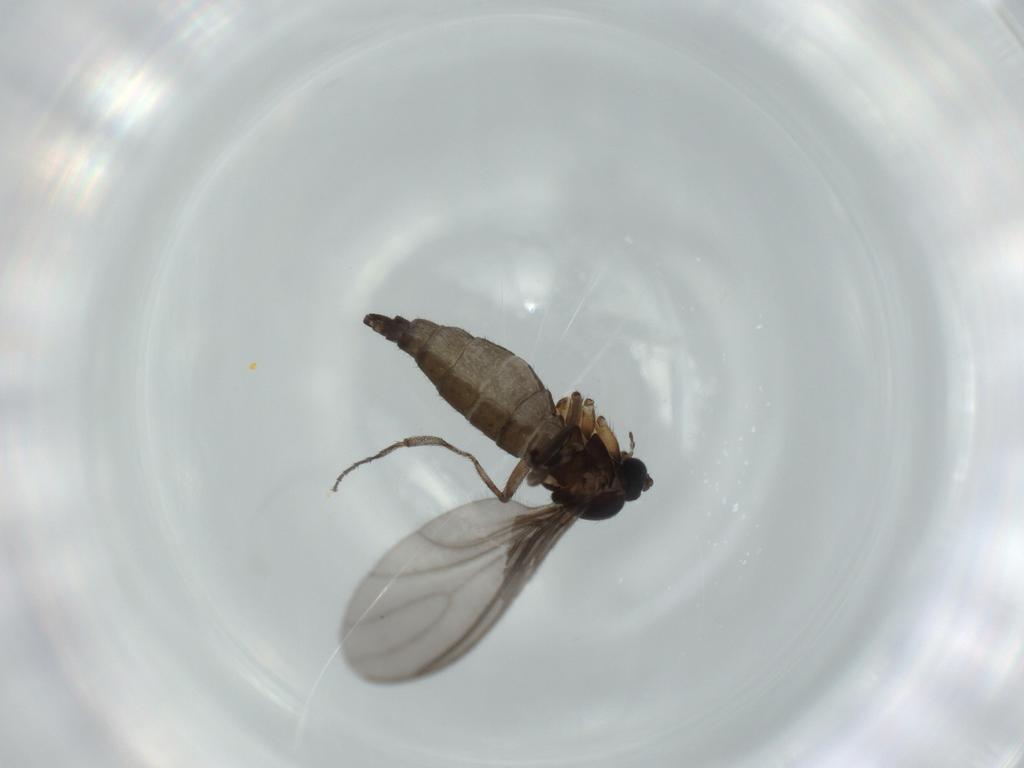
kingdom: Animalia
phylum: Arthropoda
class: Insecta
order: Diptera
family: Sciaridae
